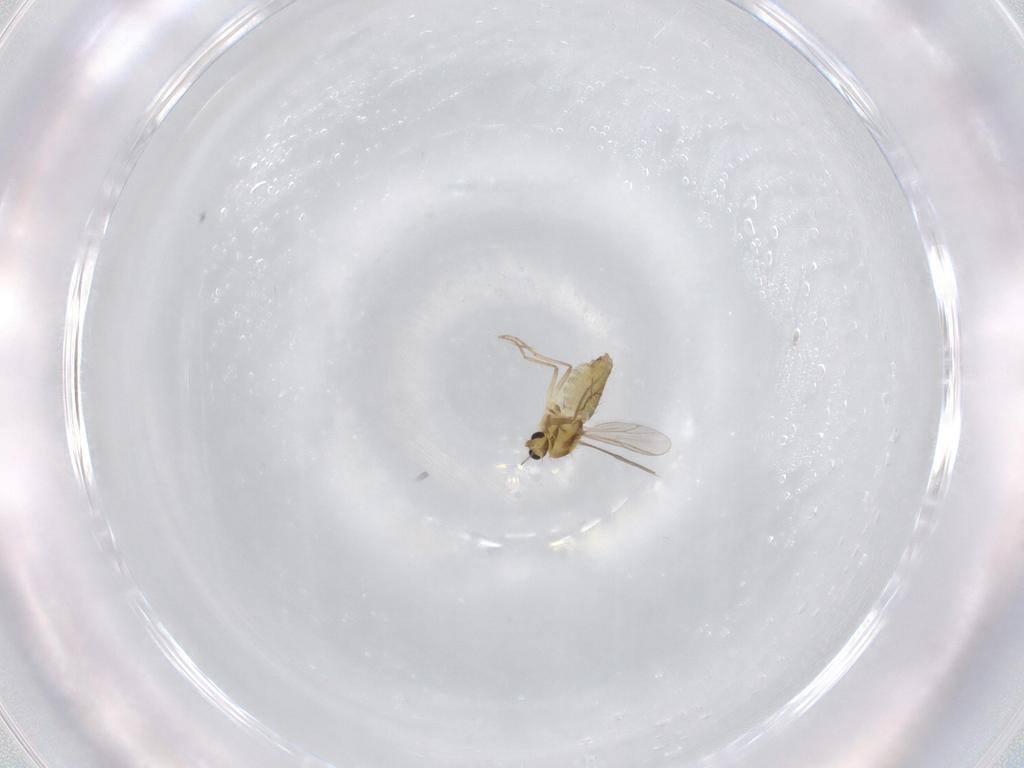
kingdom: Animalia
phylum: Arthropoda
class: Insecta
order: Diptera
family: Chironomidae
